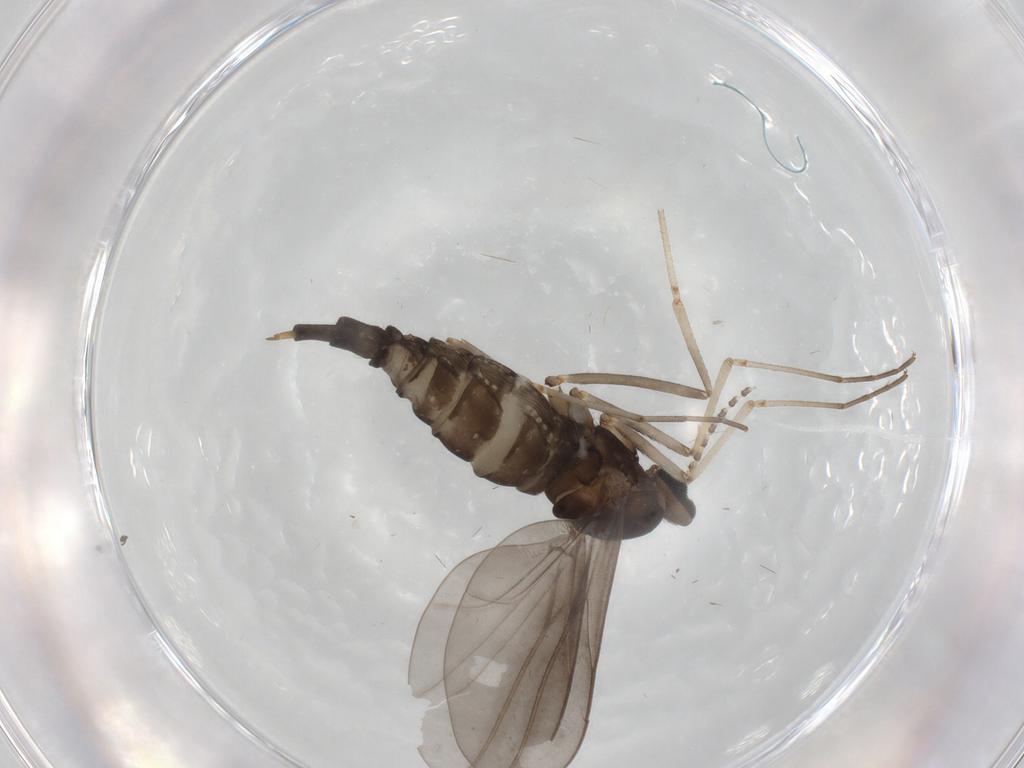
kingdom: Animalia
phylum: Arthropoda
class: Insecta
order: Diptera
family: Cecidomyiidae
